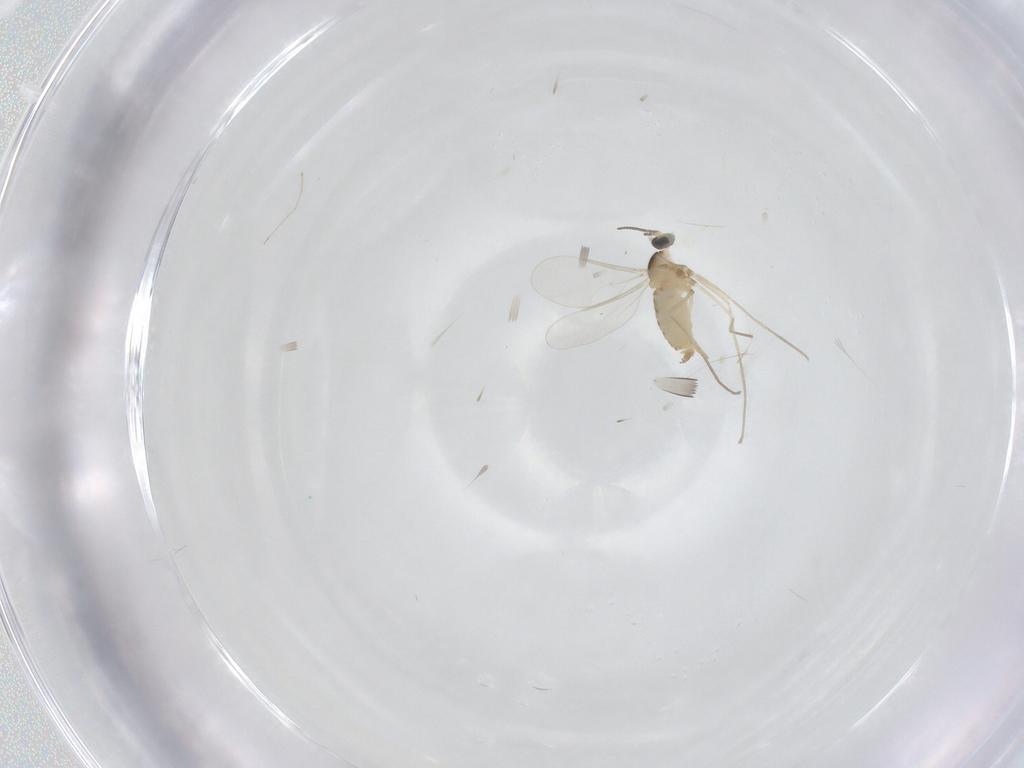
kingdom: Animalia
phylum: Arthropoda
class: Insecta
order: Diptera
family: Cecidomyiidae
